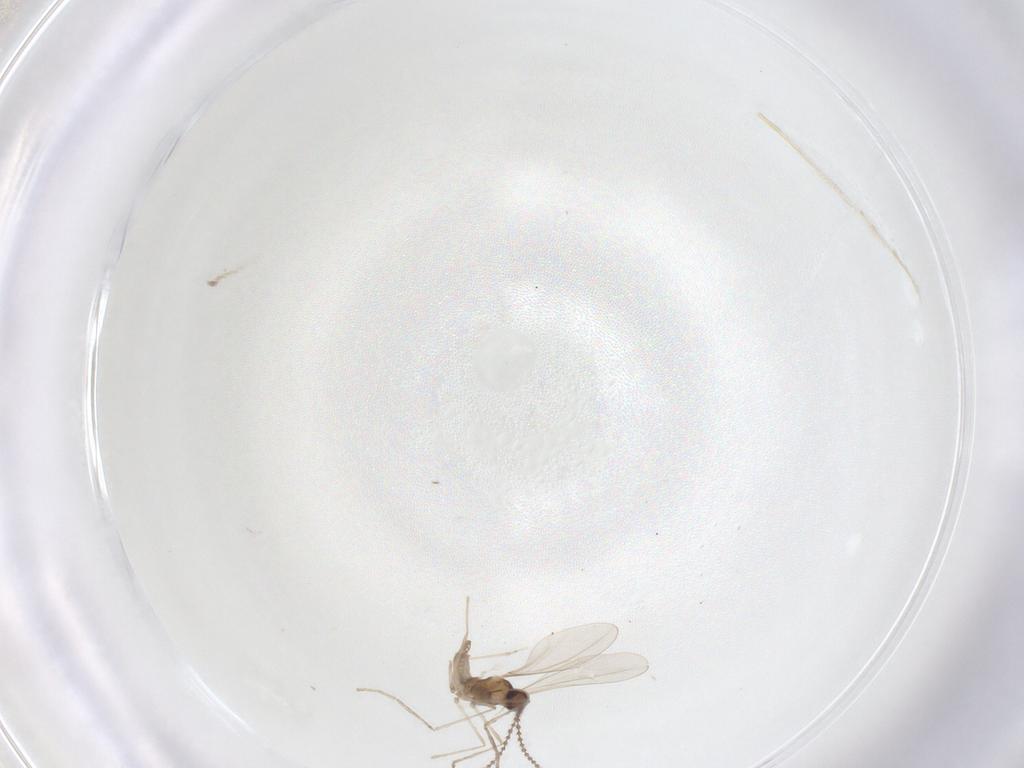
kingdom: Animalia
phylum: Arthropoda
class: Insecta
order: Diptera
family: Cecidomyiidae
